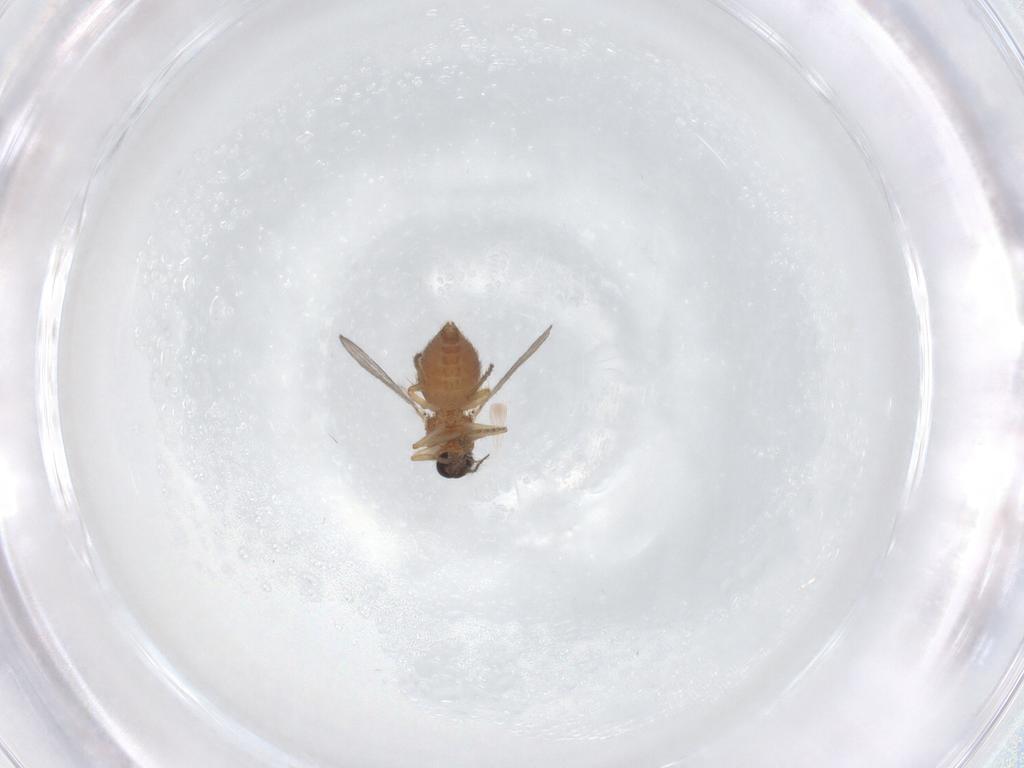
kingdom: Animalia
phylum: Arthropoda
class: Insecta
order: Diptera
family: Ceratopogonidae
